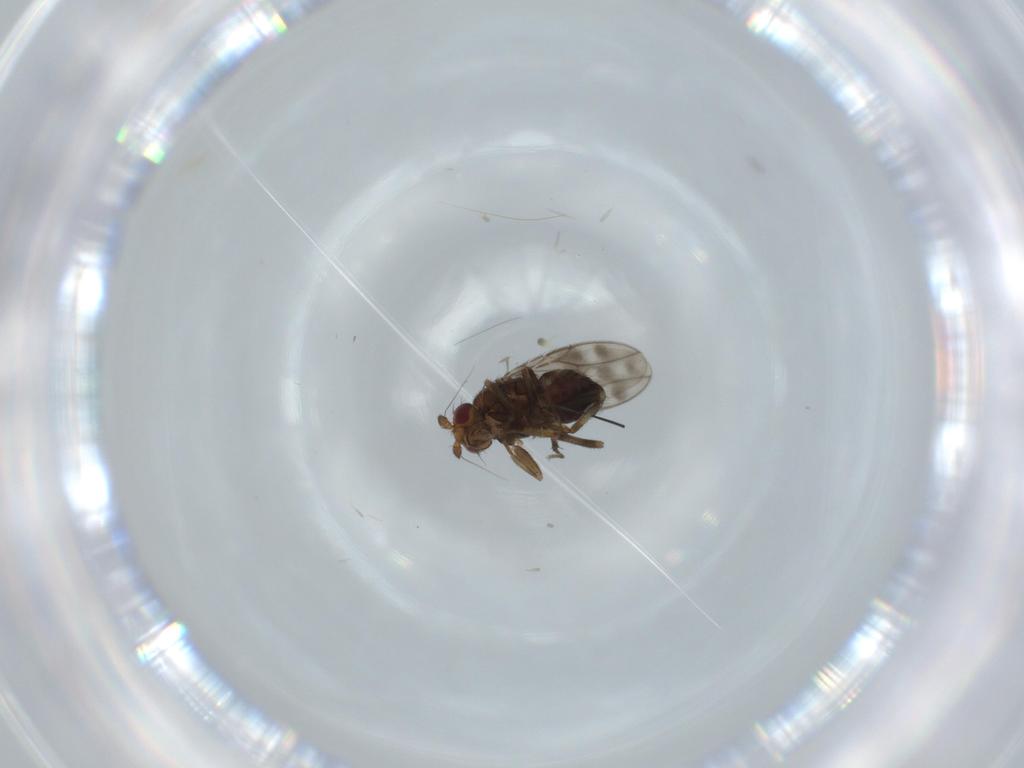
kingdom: Animalia
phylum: Arthropoda
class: Insecta
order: Diptera
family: Sphaeroceridae
